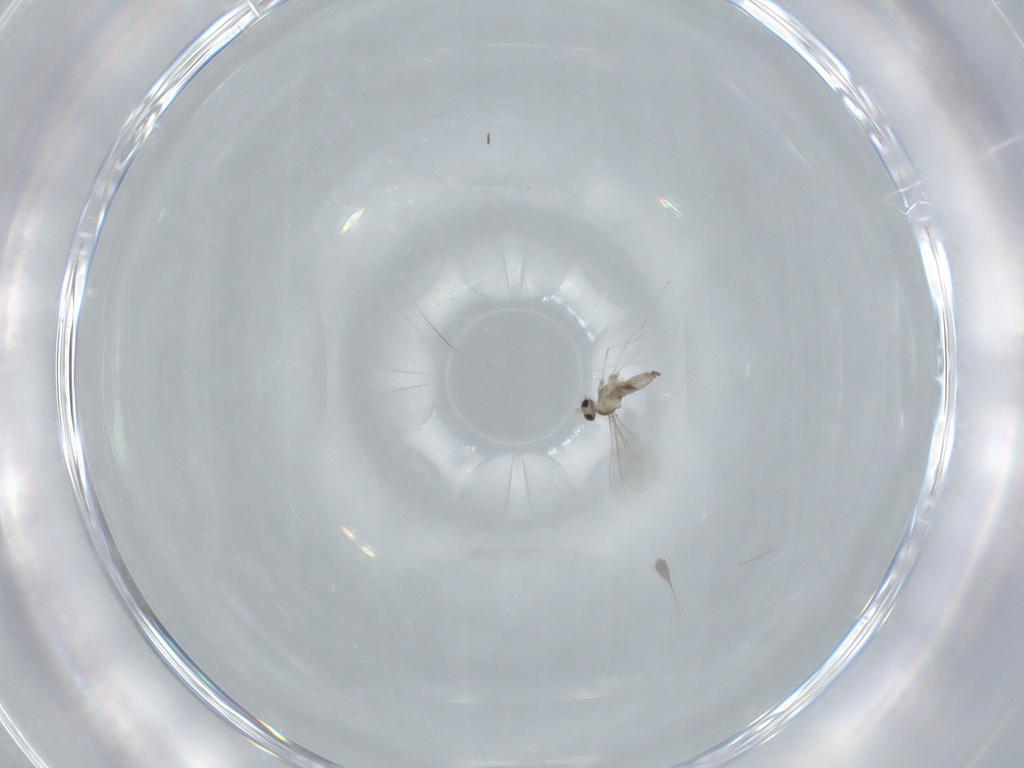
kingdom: Animalia
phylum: Arthropoda
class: Insecta
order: Diptera
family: Cecidomyiidae
